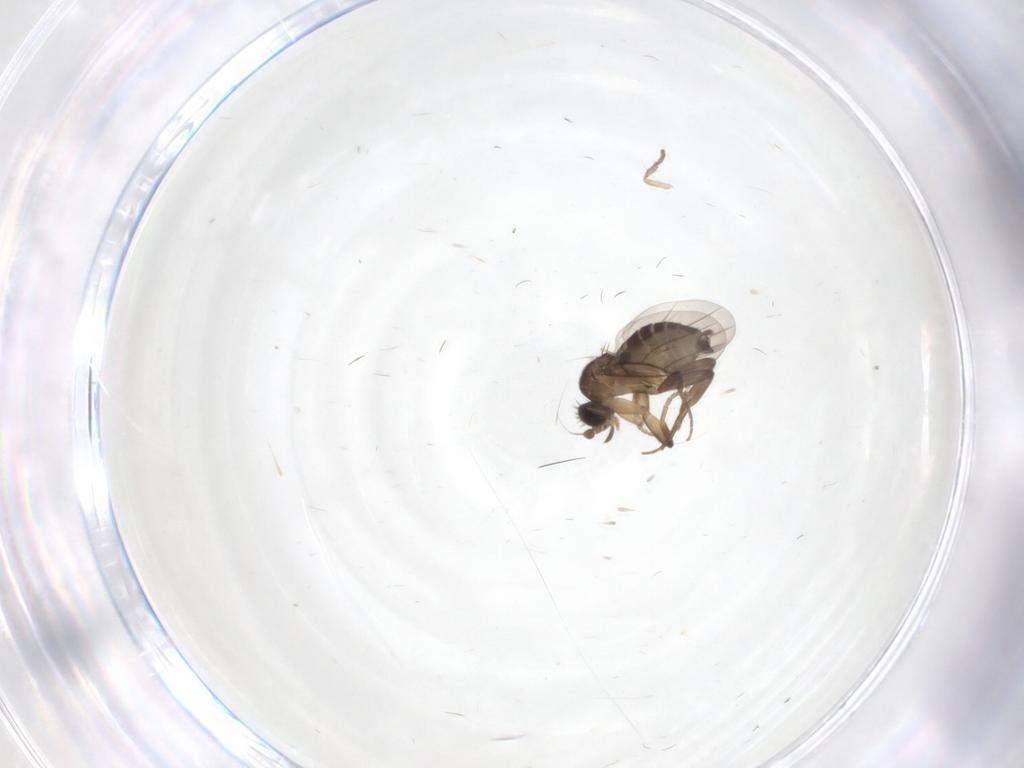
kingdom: Animalia
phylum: Arthropoda
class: Insecta
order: Diptera
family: Phoridae
